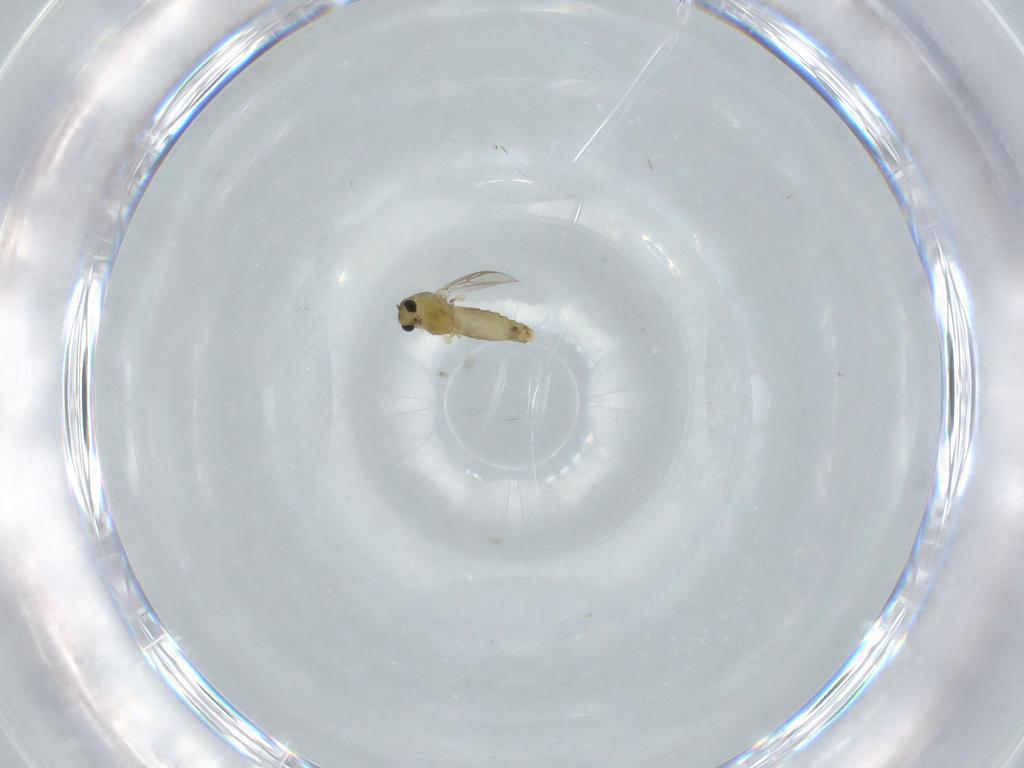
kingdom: Animalia
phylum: Arthropoda
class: Insecta
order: Diptera
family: Chironomidae
